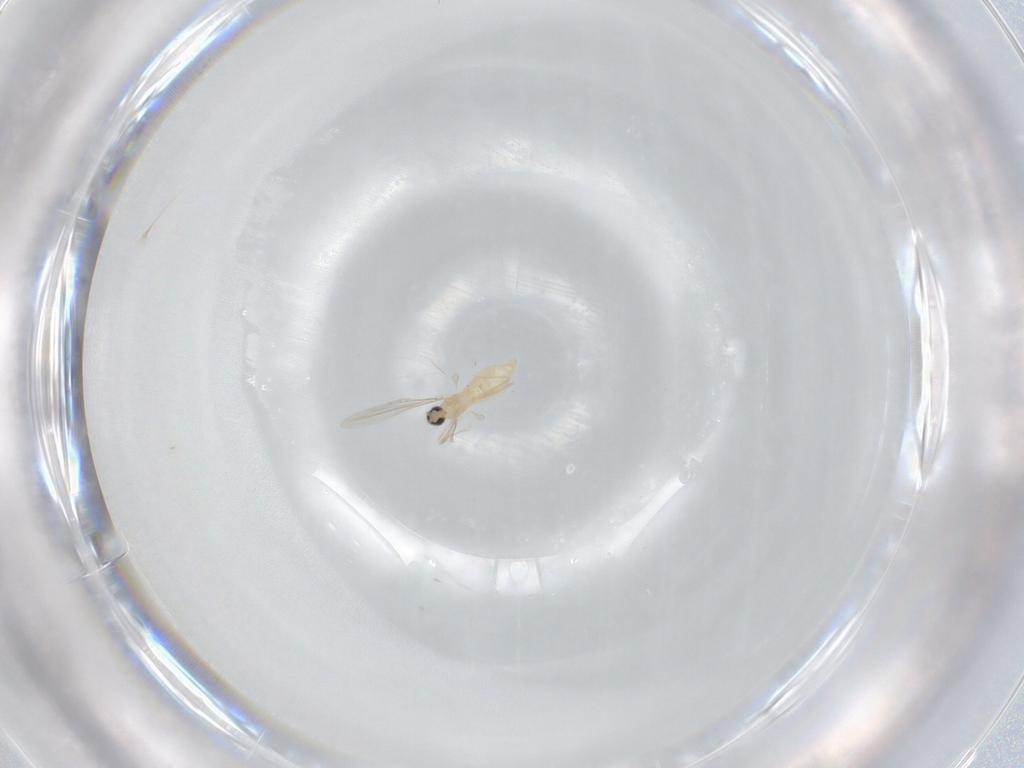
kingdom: Animalia
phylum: Arthropoda
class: Insecta
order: Diptera
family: Cecidomyiidae
